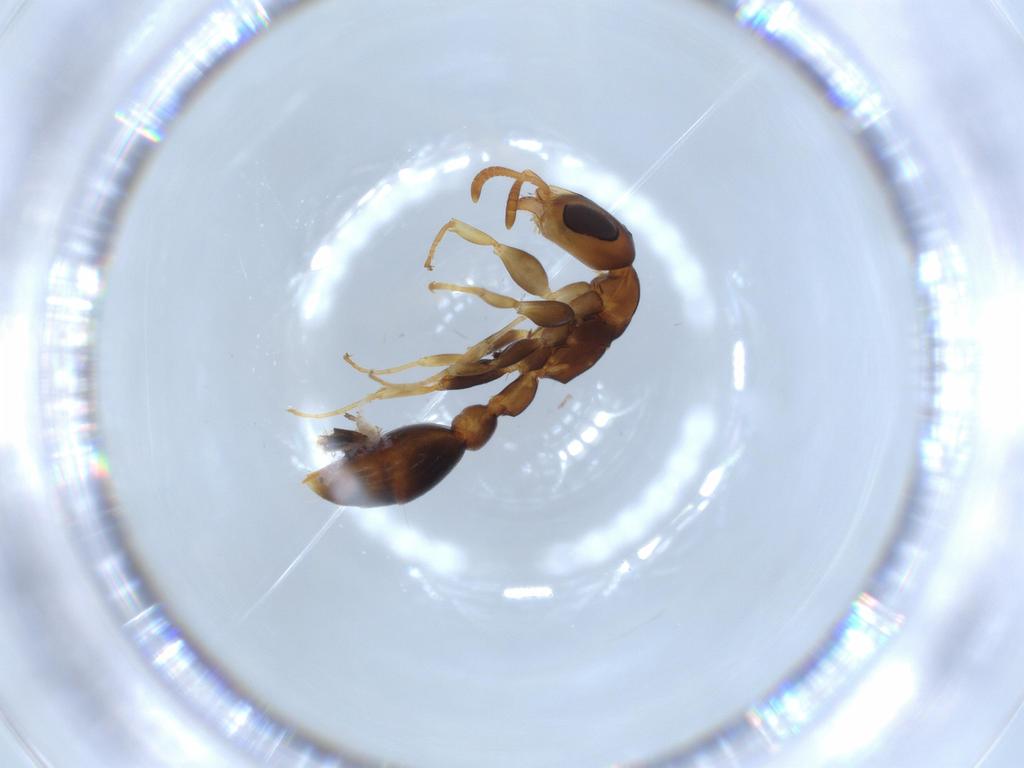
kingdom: Animalia
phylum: Arthropoda
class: Insecta
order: Hymenoptera
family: Formicidae
